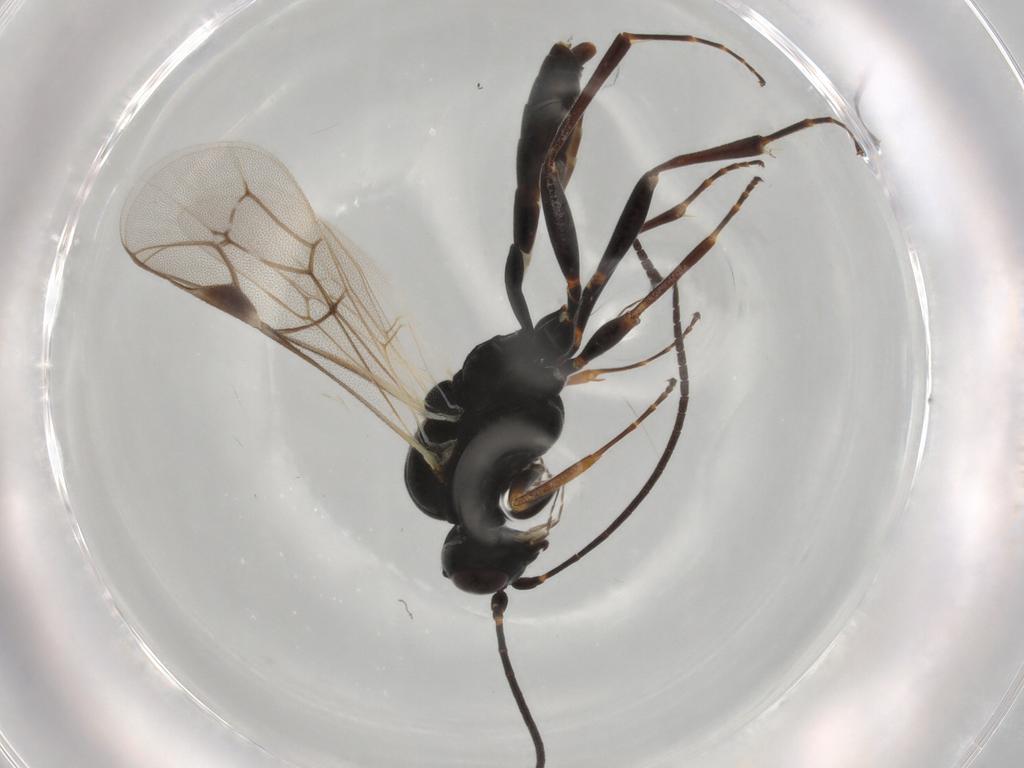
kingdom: Animalia
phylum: Arthropoda
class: Insecta
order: Hymenoptera
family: Ichneumonidae
